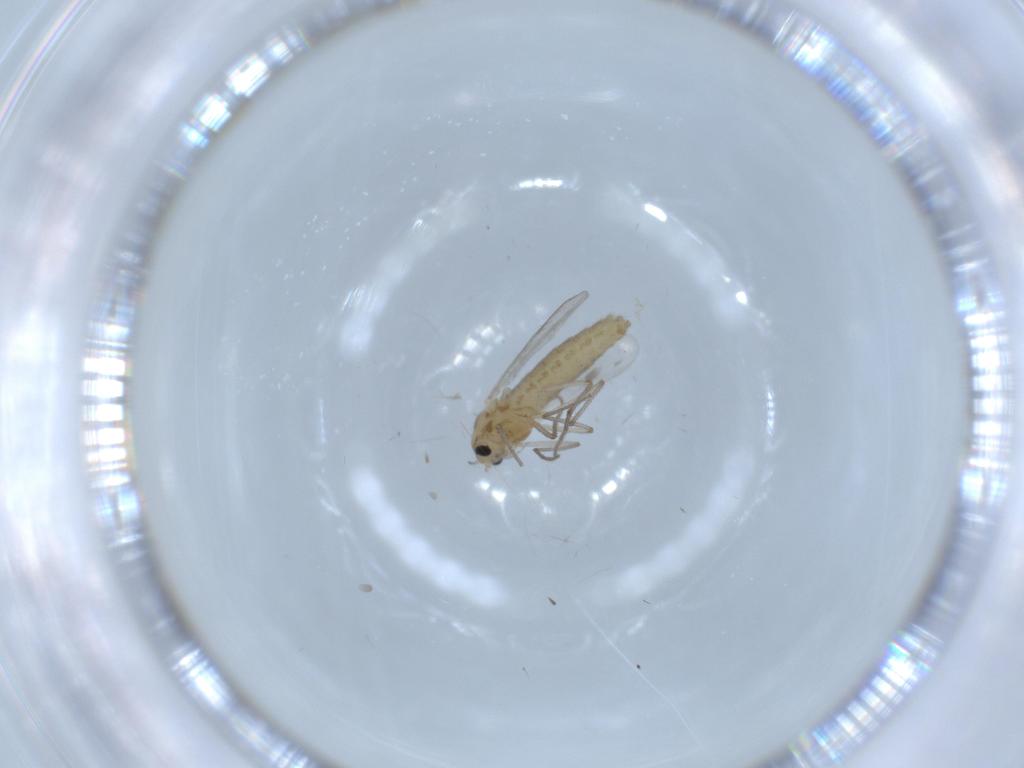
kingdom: Animalia
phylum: Arthropoda
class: Insecta
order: Diptera
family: Chironomidae
